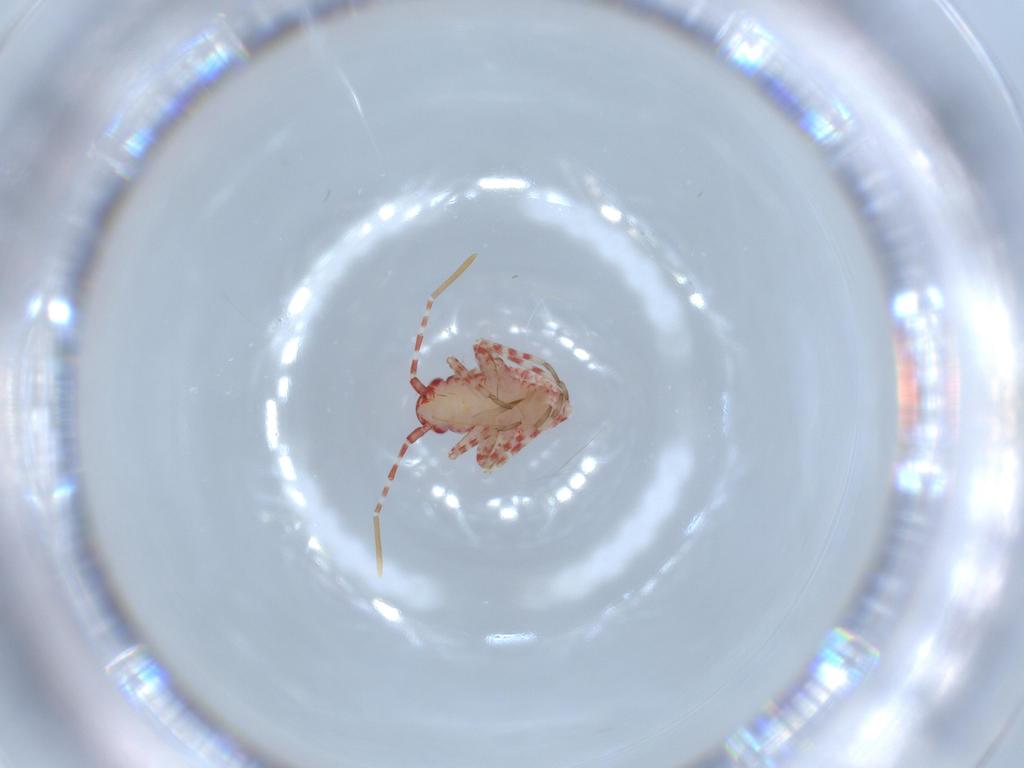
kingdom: Animalia
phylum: Arthropoda
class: Insecta
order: Hemiptera
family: Miridae
